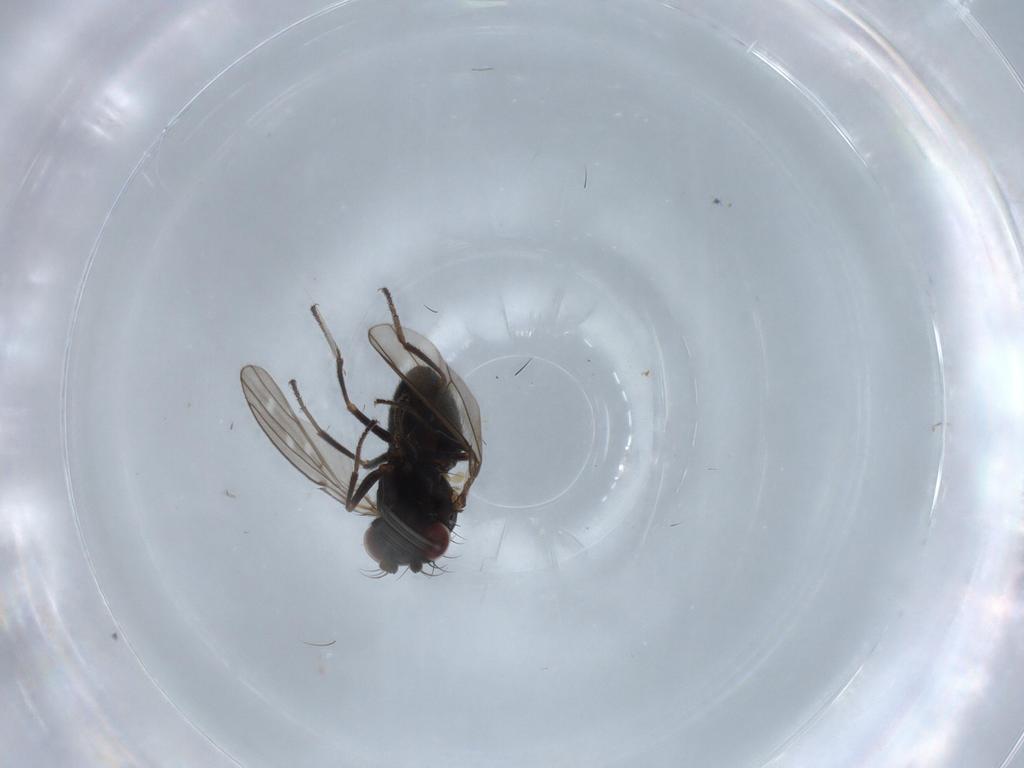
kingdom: Animalia
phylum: Arthropoda
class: Insecta
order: Diptera
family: Ephydridae
